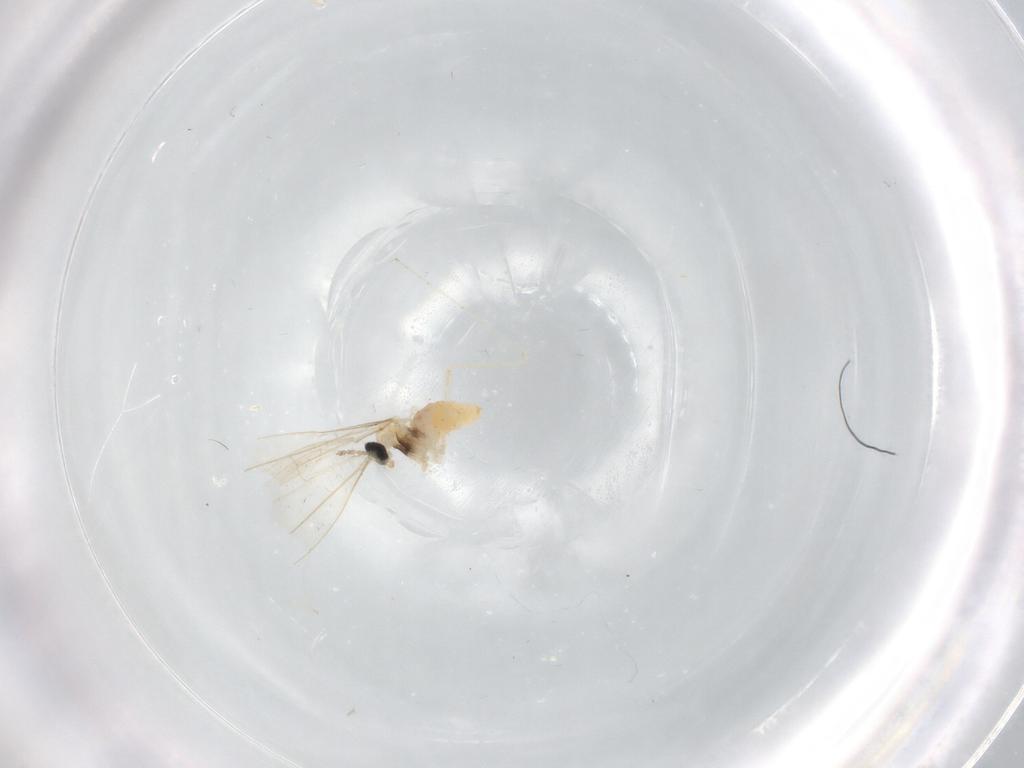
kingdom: Animalia
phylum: Arthropoda
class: Insecta
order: Diptera
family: Cecidomyiidae
